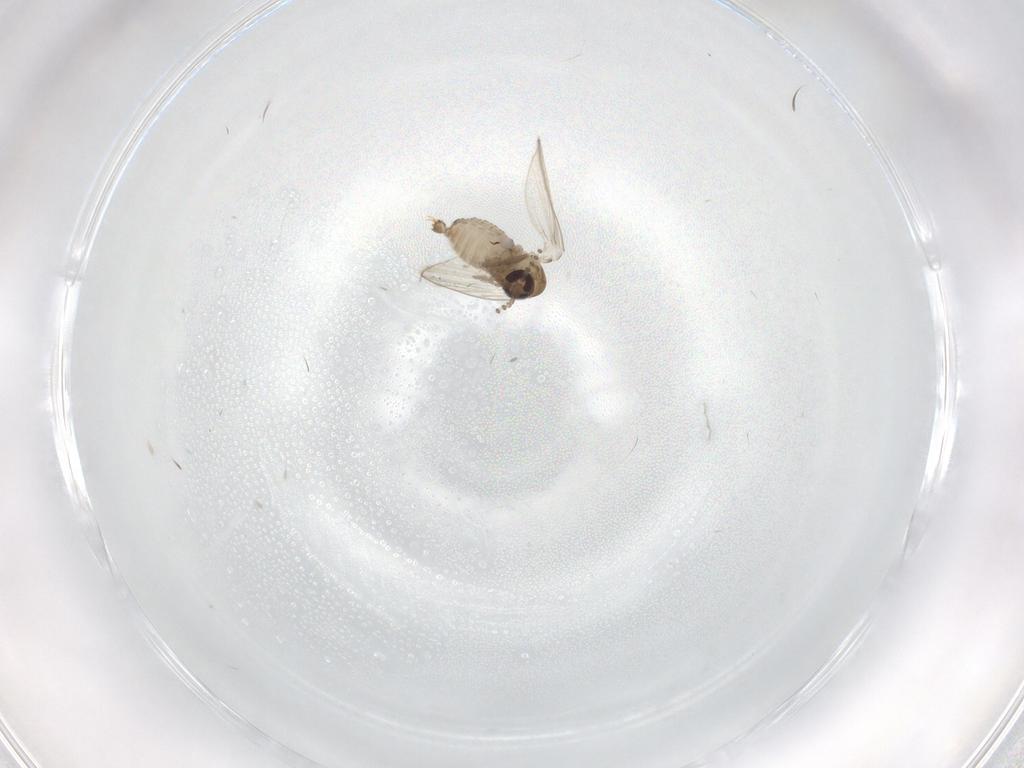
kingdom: Animalia
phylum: Arthropoda
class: Insecta
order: Diptera
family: Psychodidae
